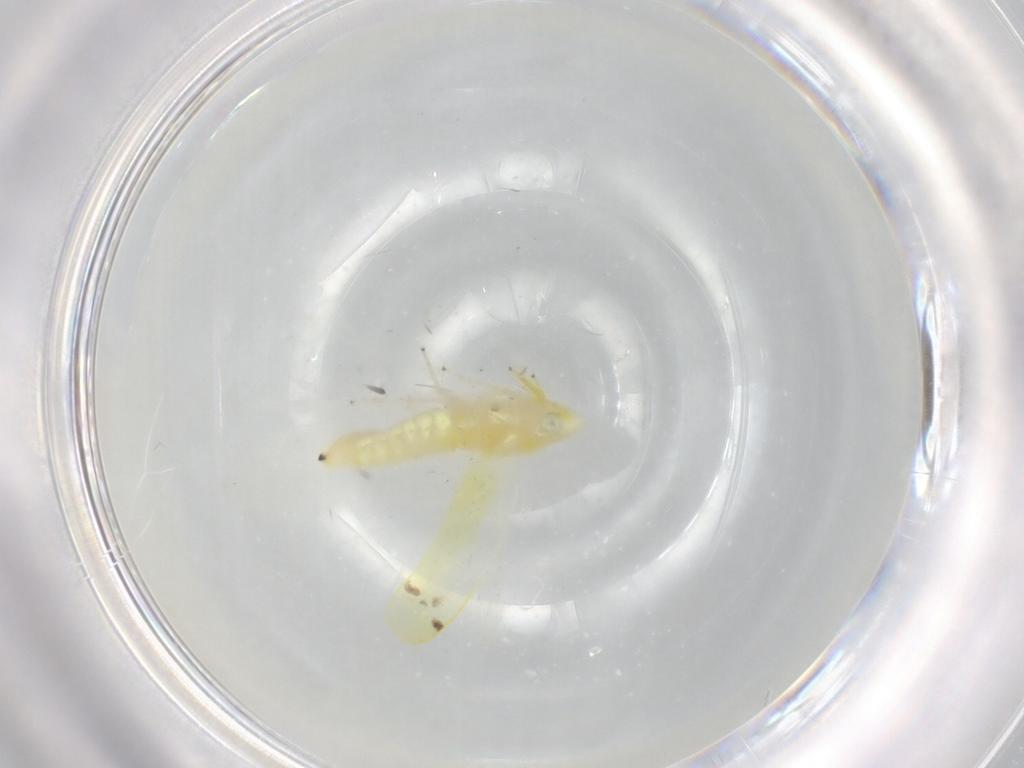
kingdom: Animalia
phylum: Arthropoda
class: Insecta
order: Hemiptera
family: Cicadellidae
